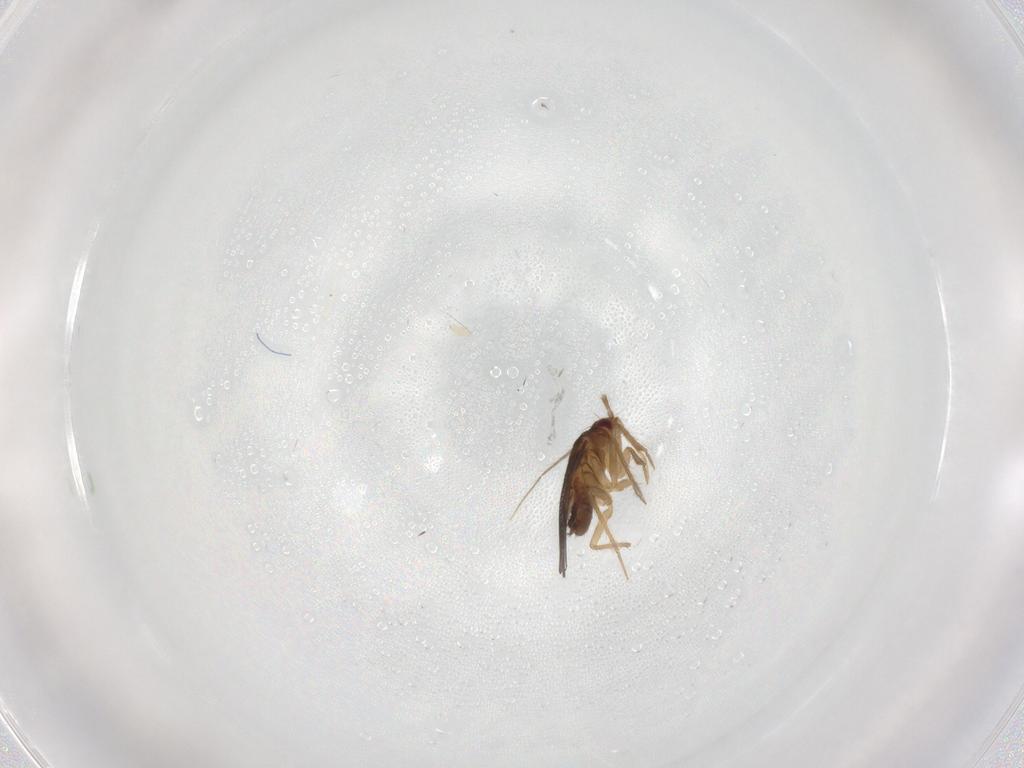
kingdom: Animalia
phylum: Arthropoda
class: Insecta
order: Hemiptera
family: Ceratocombidae
